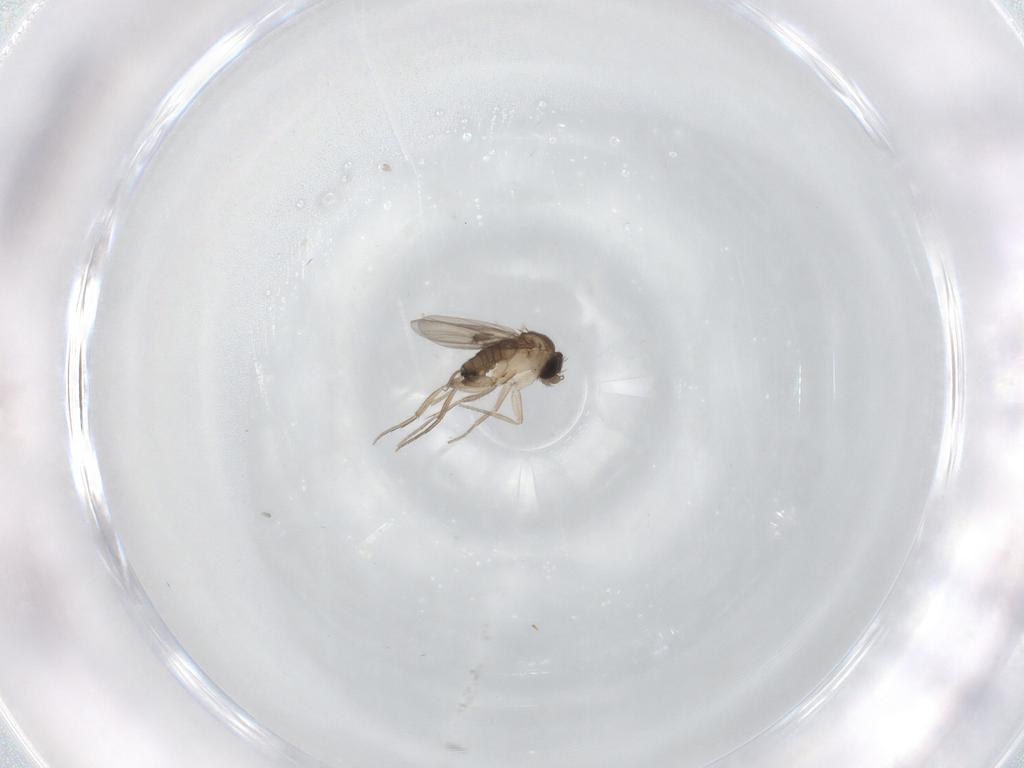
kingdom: Animalia
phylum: Arthropoda
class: Insecta
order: Diptera
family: Phoridae
